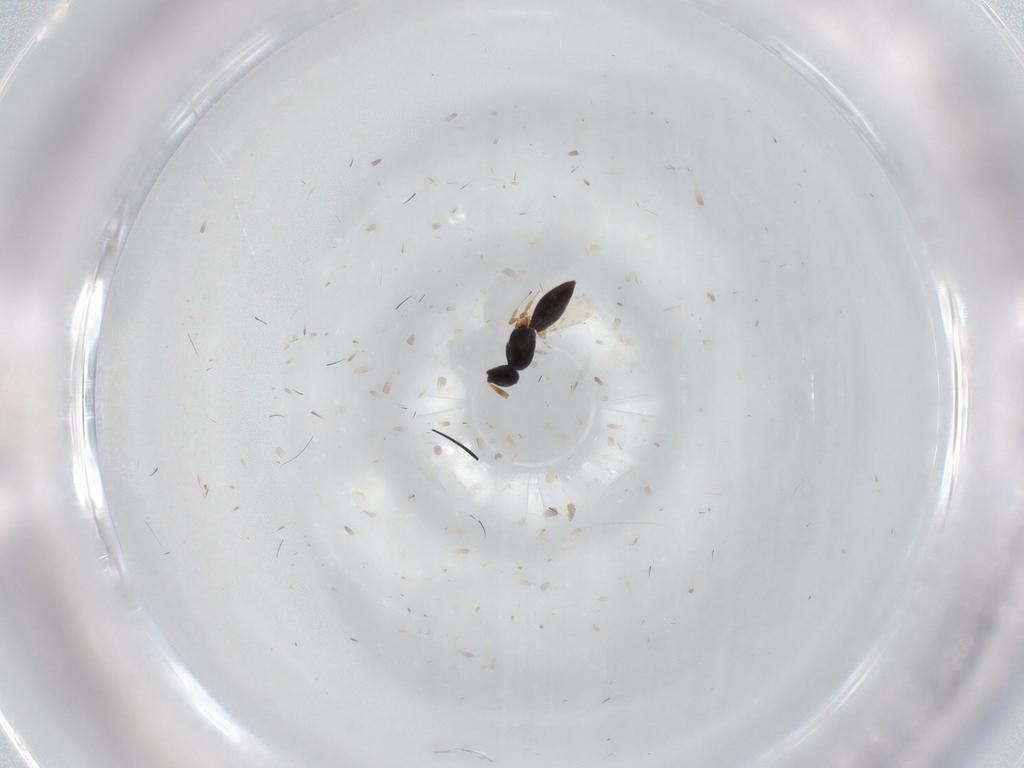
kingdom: Animalia
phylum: Arthropoda
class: Insecta
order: Hymenoptera
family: Scelionidae
